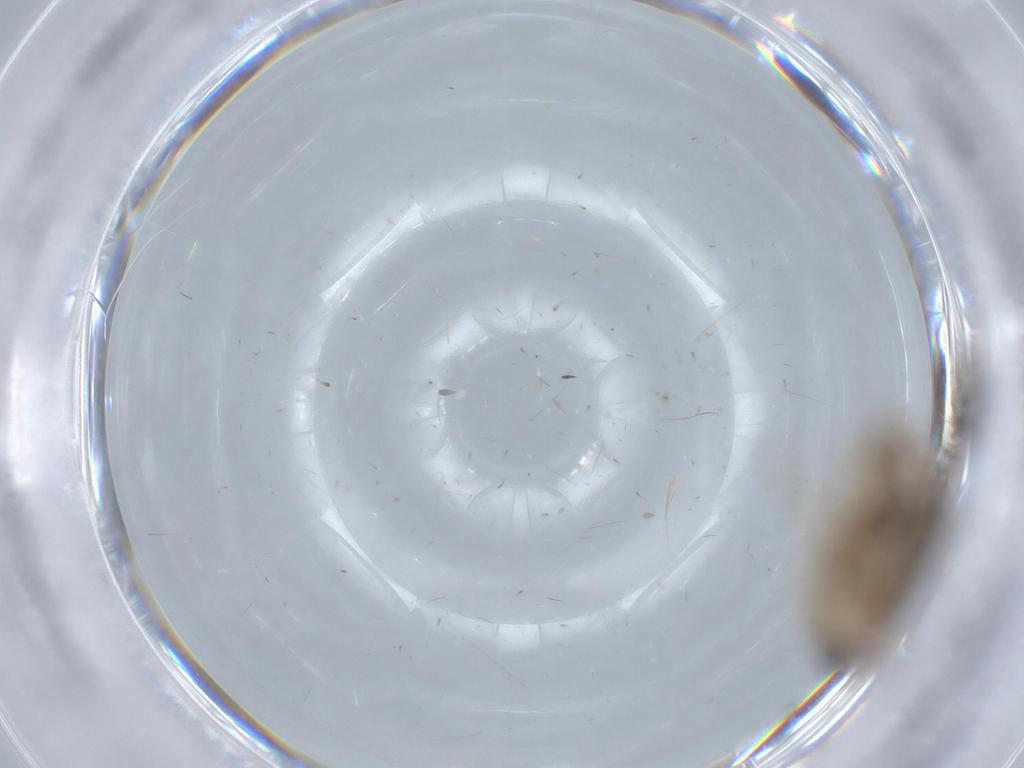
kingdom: Animalia
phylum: Arthropoda
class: Insecta
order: Lepidoptera
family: Cosmopterigidae
